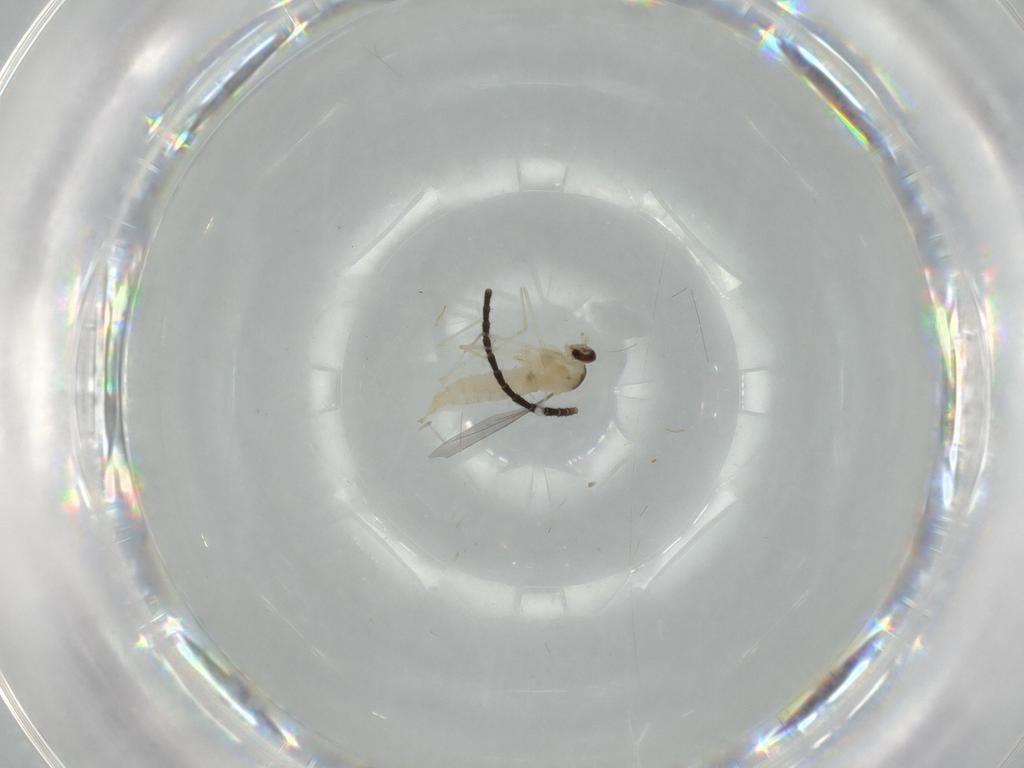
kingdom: Animalia
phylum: Arthropoda
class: Insecta
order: Diptera
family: Cecidomyiidae
